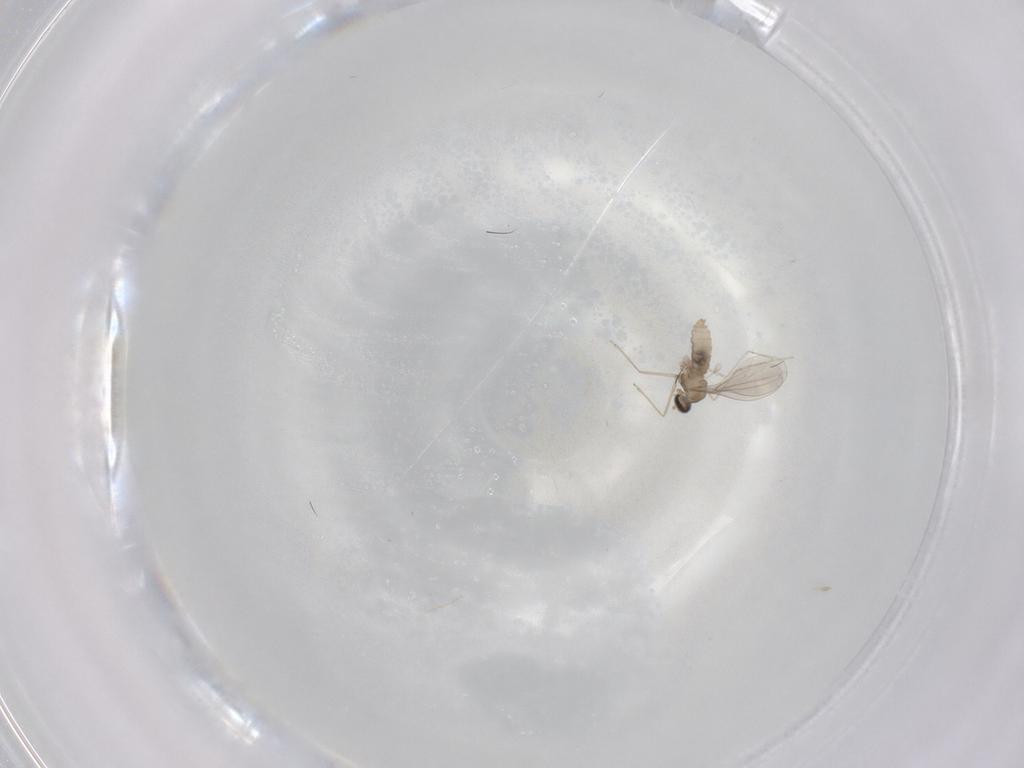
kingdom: Animalia
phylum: Arthropoda
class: Insecta
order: Diptera
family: Cecidomyiidae
